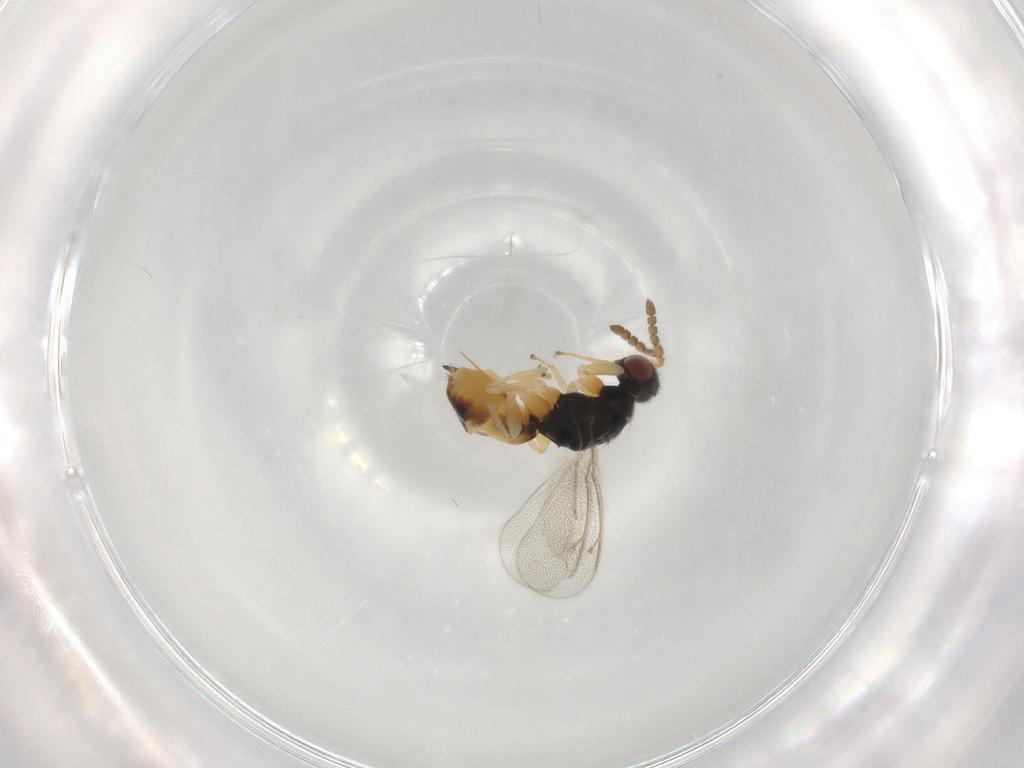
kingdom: Animalia
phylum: Arthropoda
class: Insecta
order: Hymenoptera
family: Eulophidae
